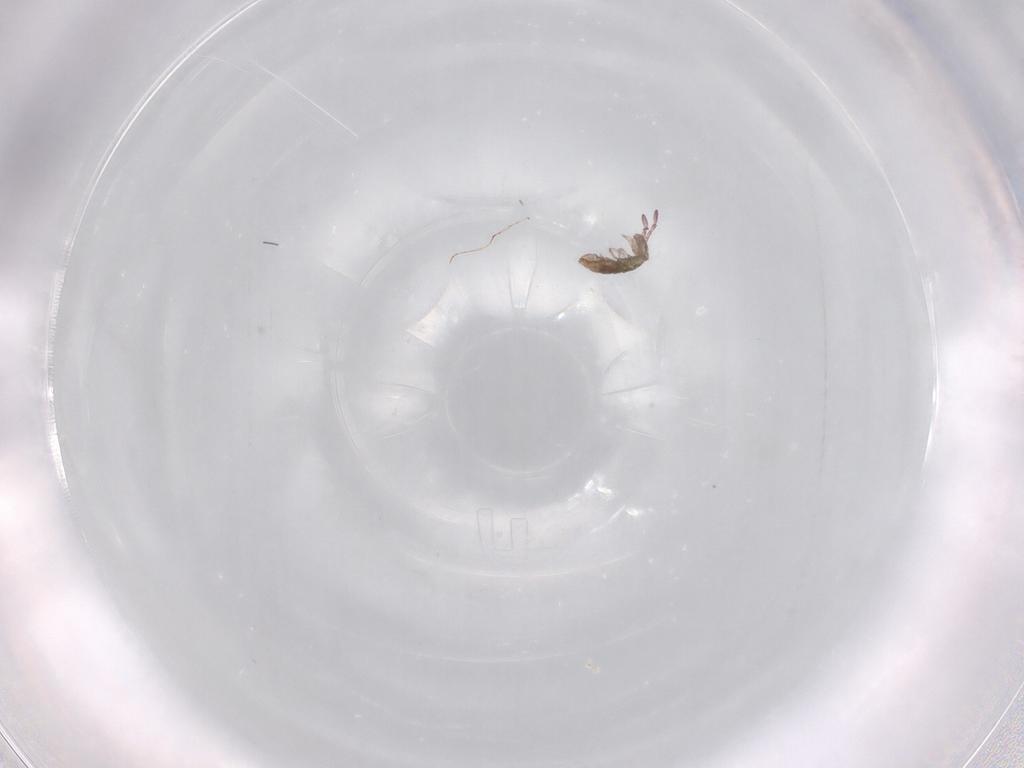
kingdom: Animalia
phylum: Arthropoda
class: Collembola
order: Entomobryomorpha
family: Isotomidae
